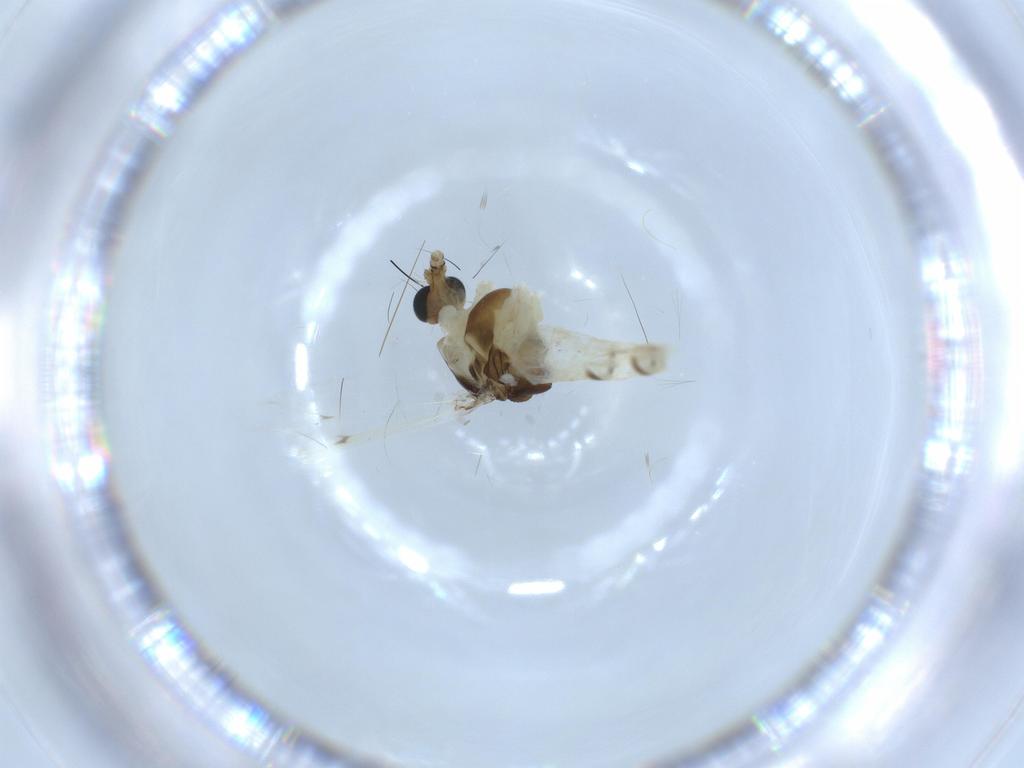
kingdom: Animalia
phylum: Arthropoda
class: Insecta
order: Diptera
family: Chironomidae
